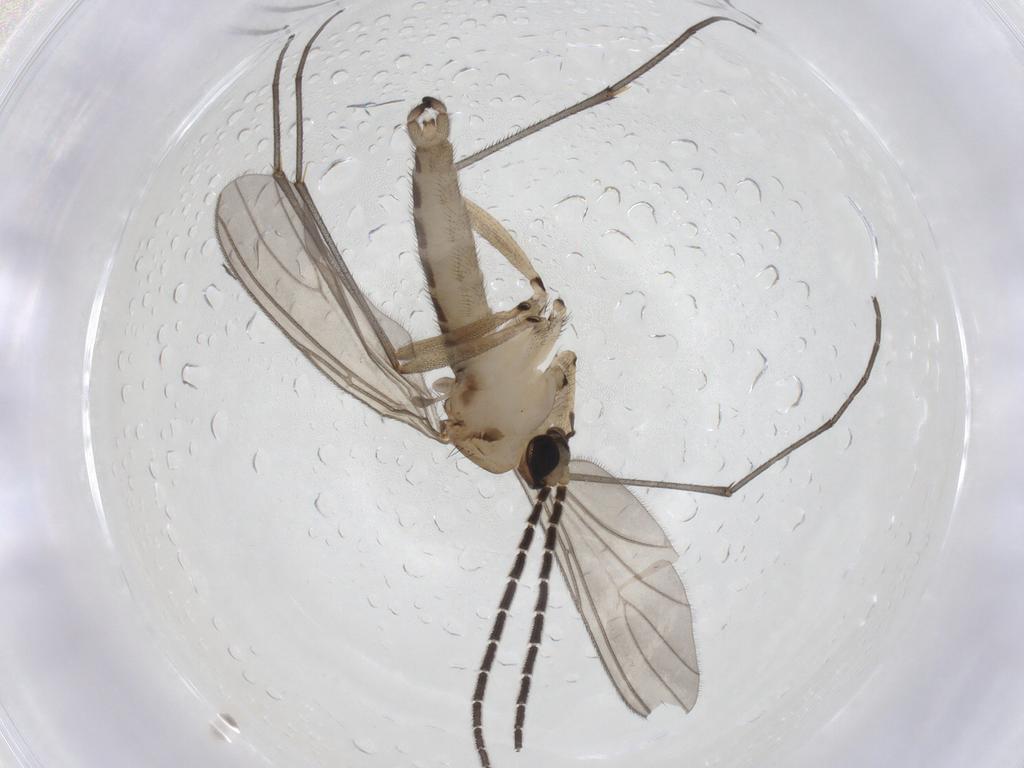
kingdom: Animalia
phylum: Arthropoda
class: Insecta
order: Diptera
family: Sciaridae
